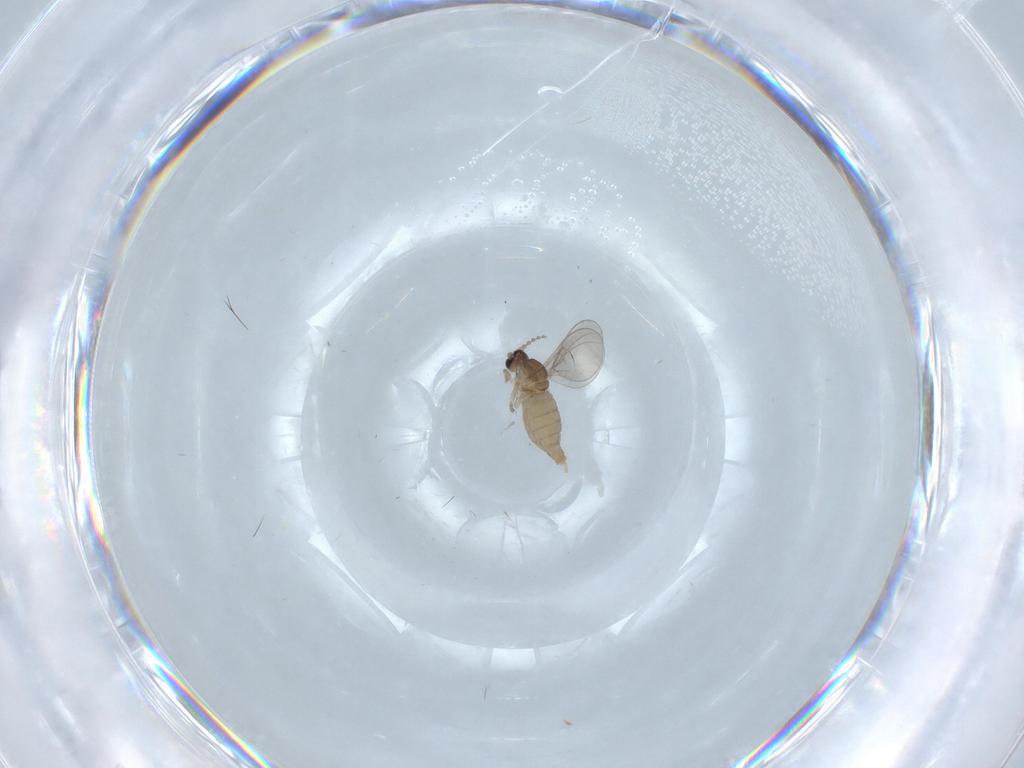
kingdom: Animalia
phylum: Arthropoda
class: Insecta
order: Diptera
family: Cecidomyiidae
